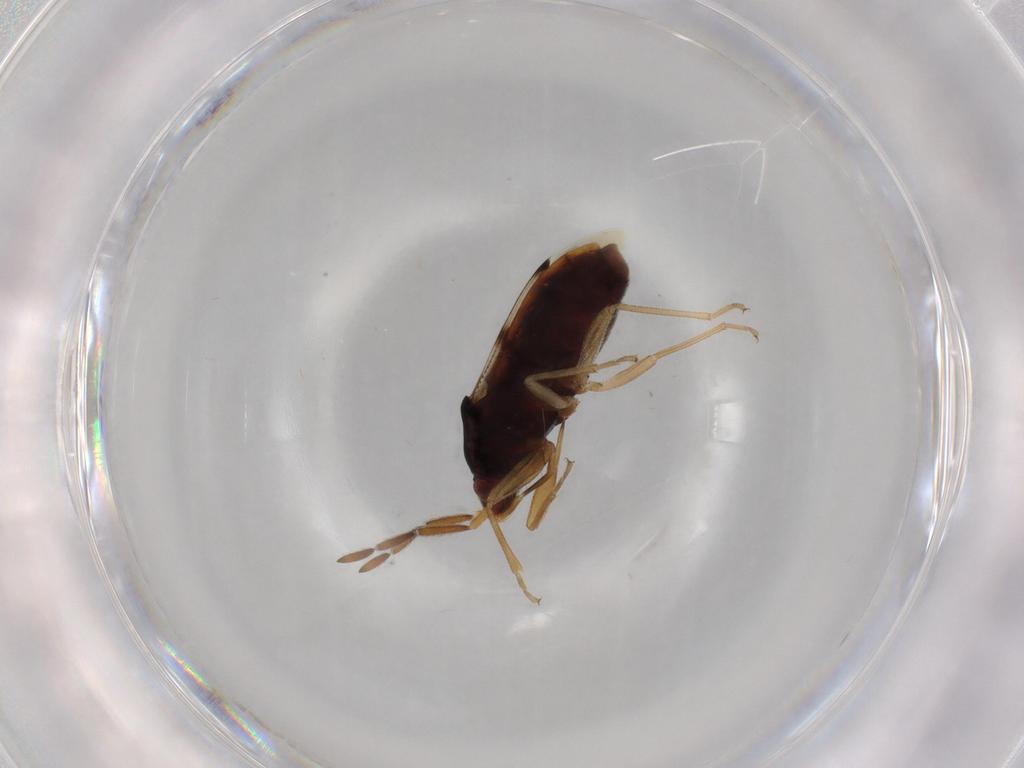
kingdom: Animalia
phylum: Arthropoda
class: Insecta
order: Hemiptera
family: Rhyparochromidae
